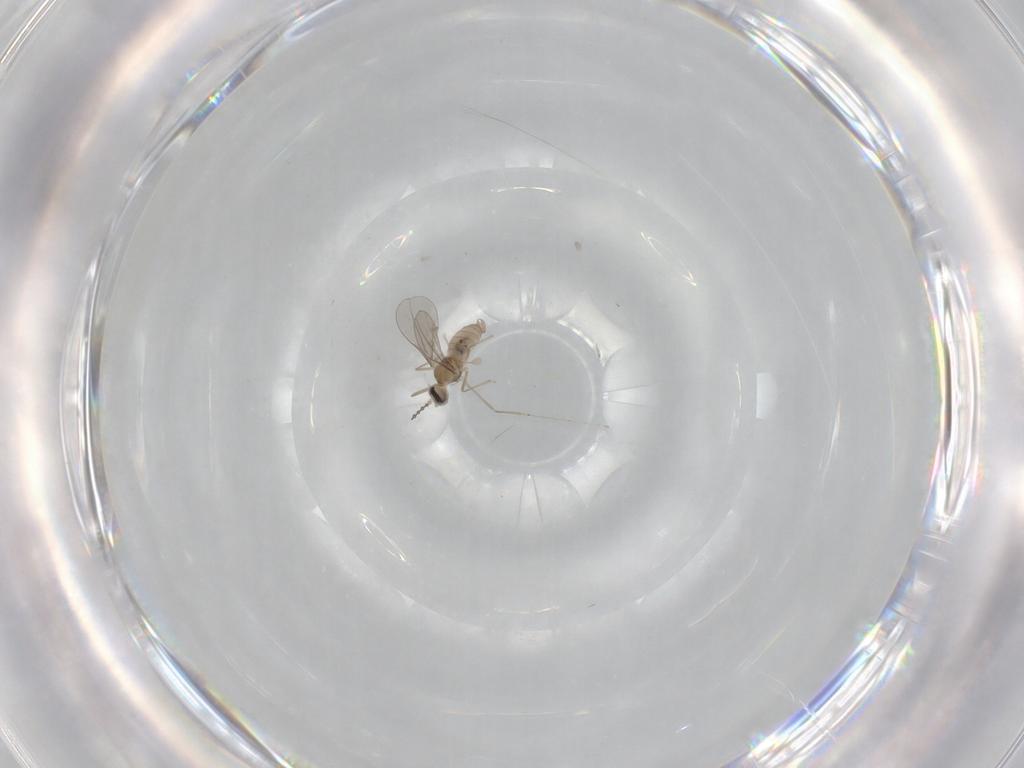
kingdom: Animalia
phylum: Arthropoda
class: Insecta
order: Diptera
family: Cecidomyiidae
